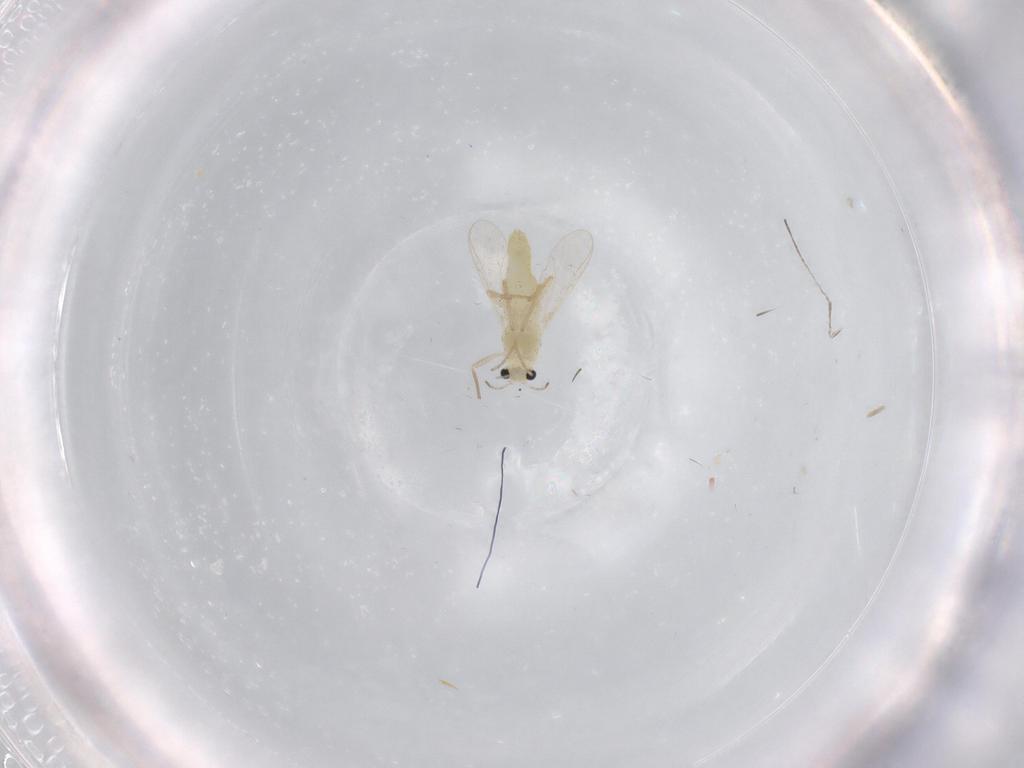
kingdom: Animalia
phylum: Arthropoda
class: Insecta
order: Diptera
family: Chironomidae
